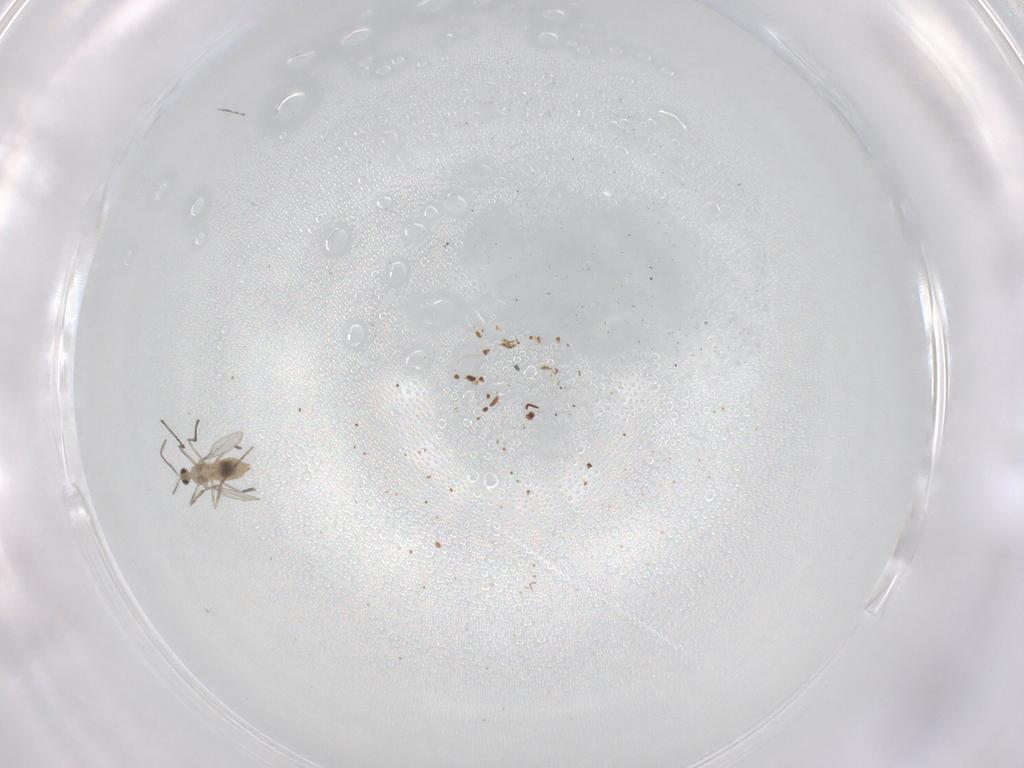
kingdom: Animalia
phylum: Arthropoda
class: Insecta
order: Diptera
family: Cecidomyiidae
